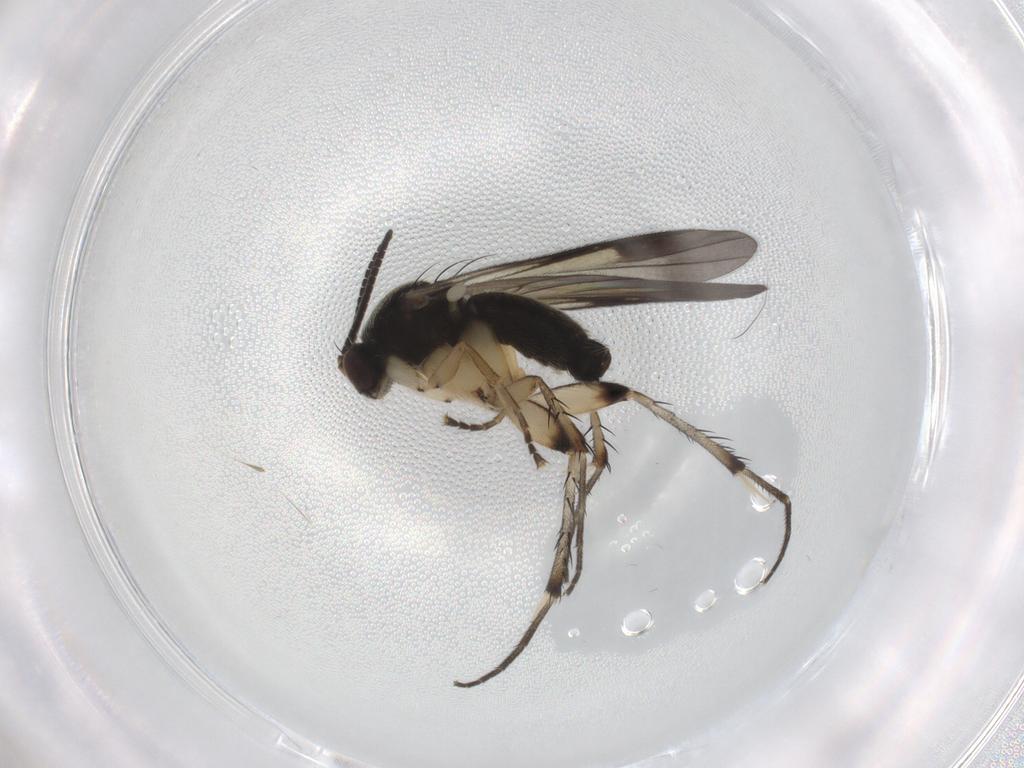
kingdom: Animalia
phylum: Arthropoda
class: Insecta
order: Diptera
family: Mycetophilidae
